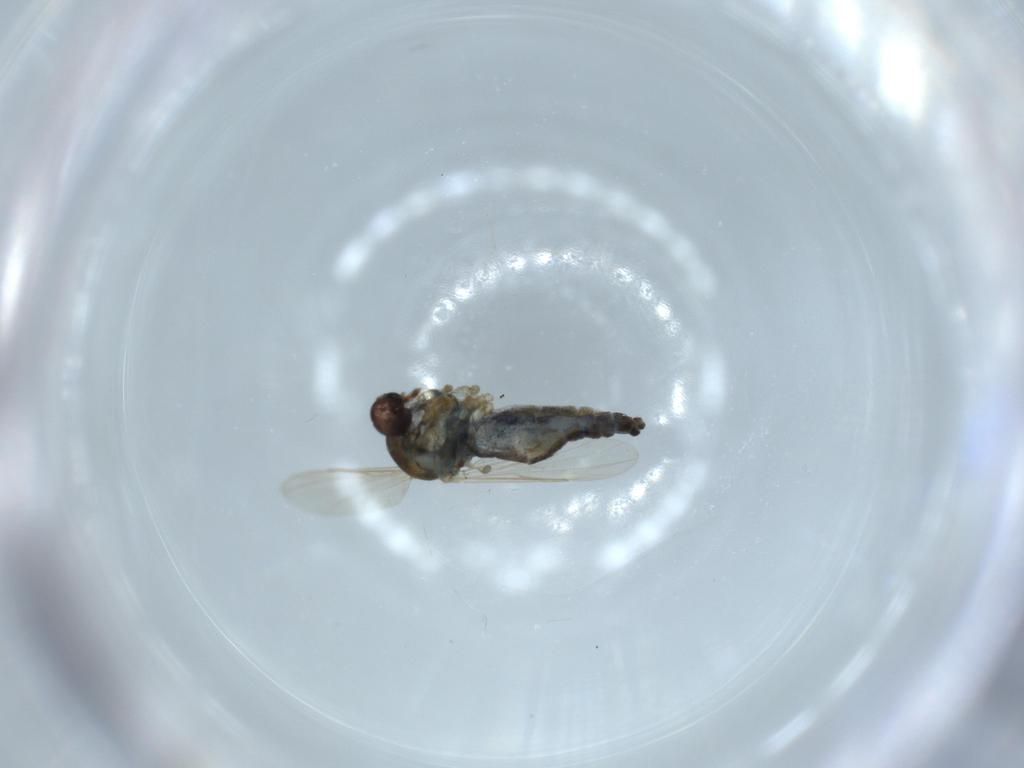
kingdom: Animalia
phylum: Arthropoda
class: Insecta
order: Diptera
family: Ceratopogonidae
